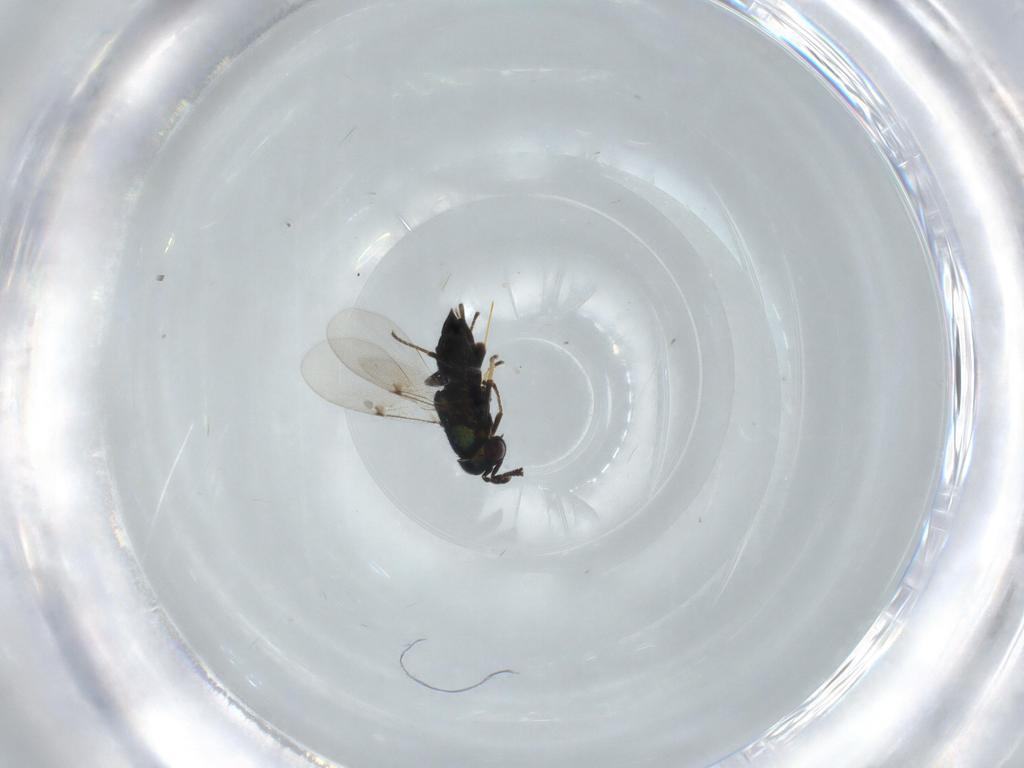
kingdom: Animalia
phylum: Arthropoda
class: Insecta
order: Hymenoptera
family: Encyrtidae
